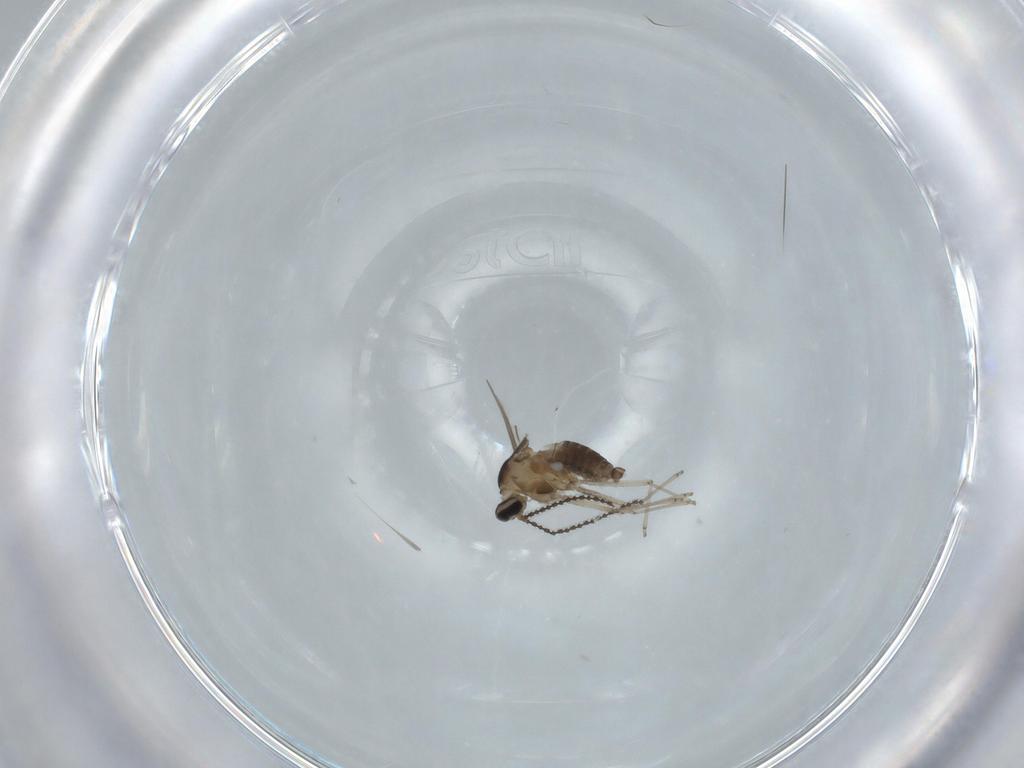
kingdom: Animalia
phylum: Arthropoda
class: Insecta
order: Diptera
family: Cecidomyiidae
